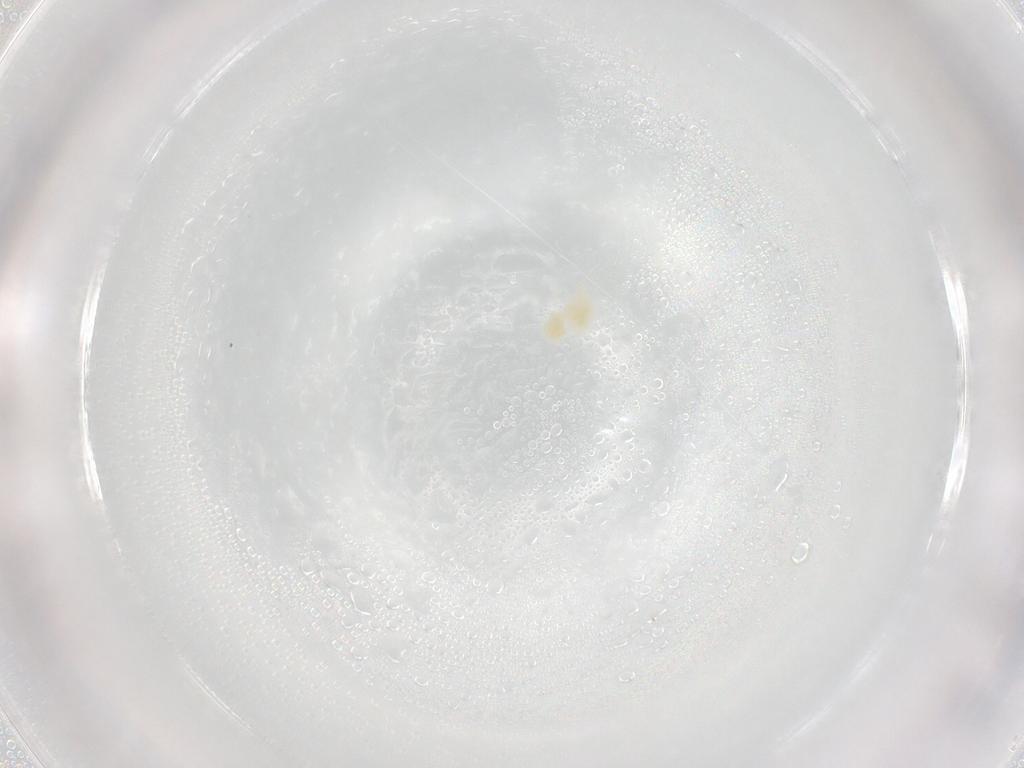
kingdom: Animalia
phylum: Arthropoda
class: Arachnida
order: Trombidiformes
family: Eupodidae
